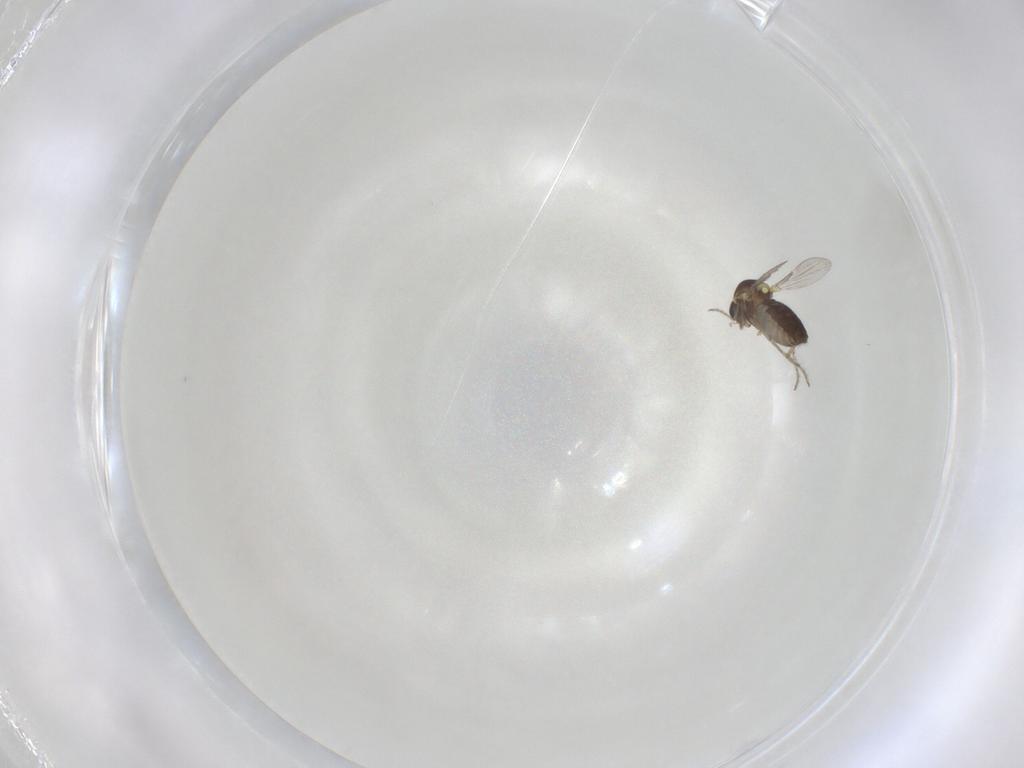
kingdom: Animalia
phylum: Arthropoda
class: Insecta
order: Diptera
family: Ceratopogonidae
